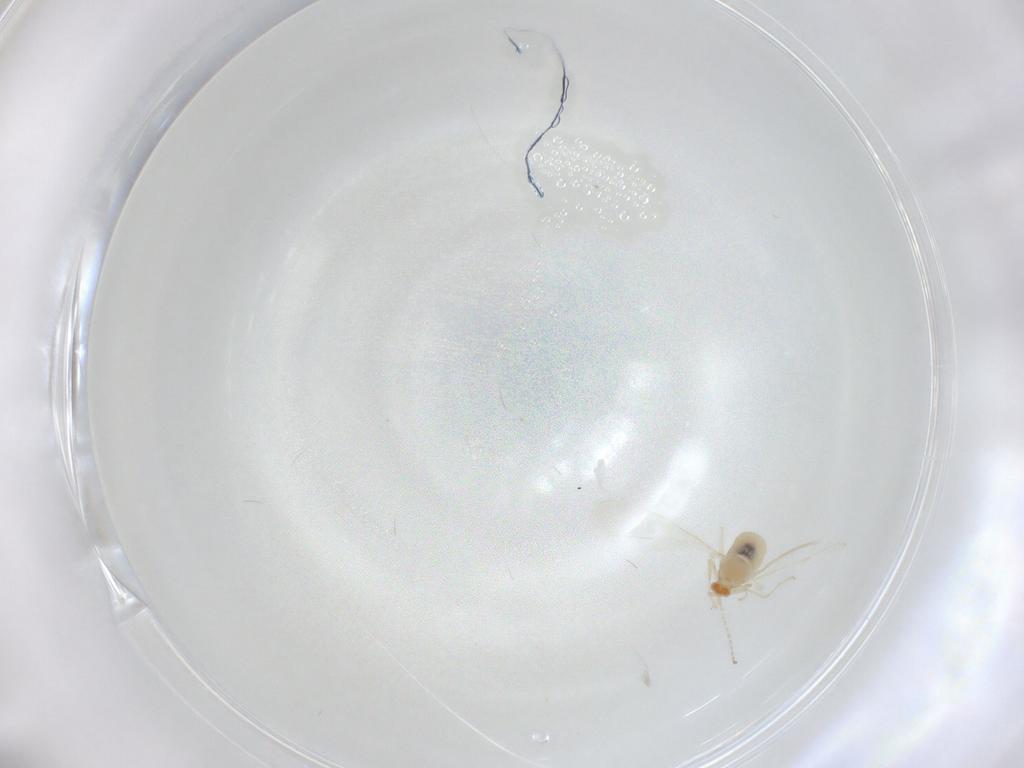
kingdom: Animalia
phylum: Arthropoda
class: Insecta
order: Diptera
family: Cecidomyiidae
